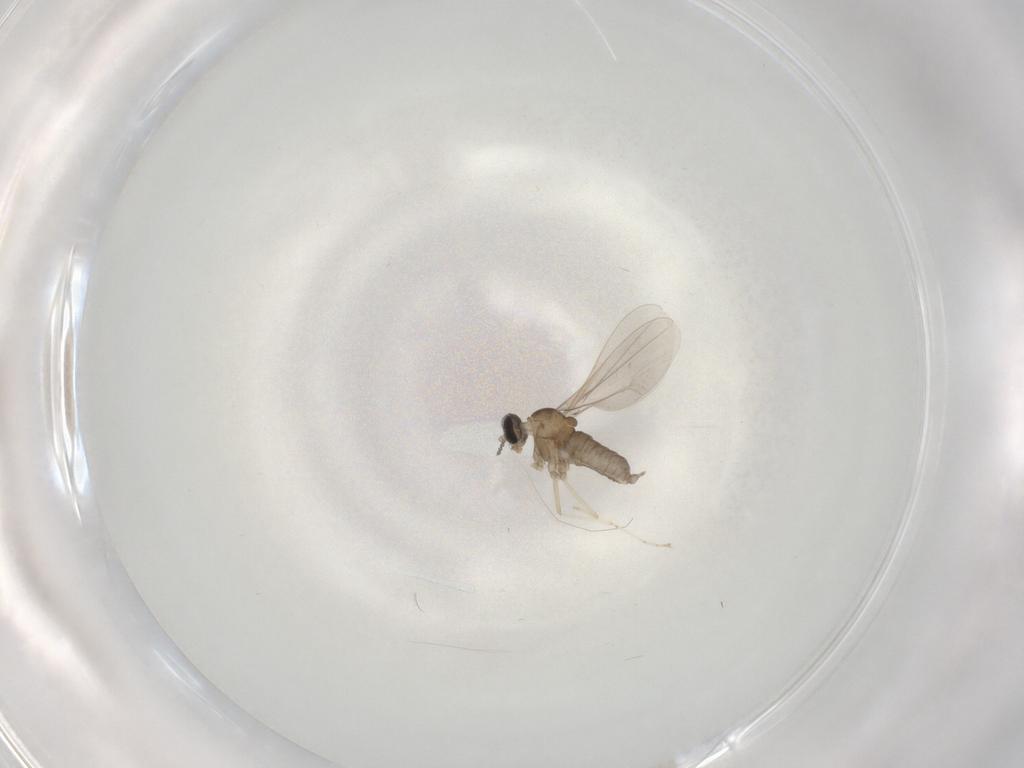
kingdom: Animalia
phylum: Arthropoda
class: Insecta
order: Diptera
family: Cecidomyiidae
